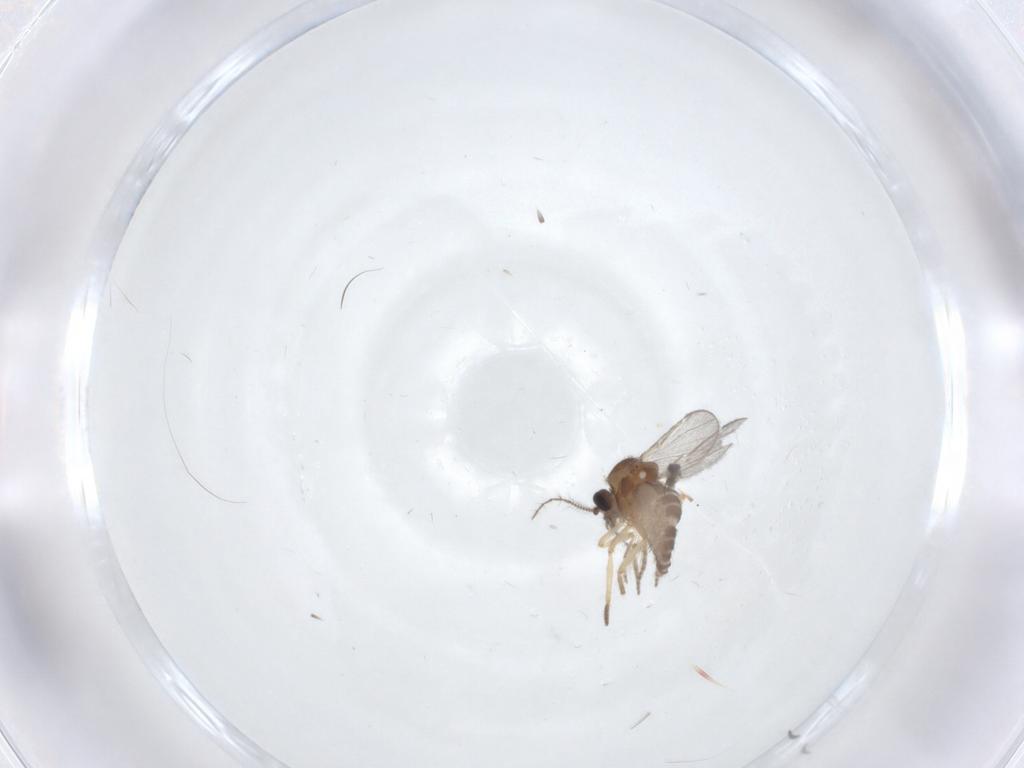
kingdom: Animalia
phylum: Arthropoda
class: Insecta
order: Diptera
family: Ceratopogonidae
